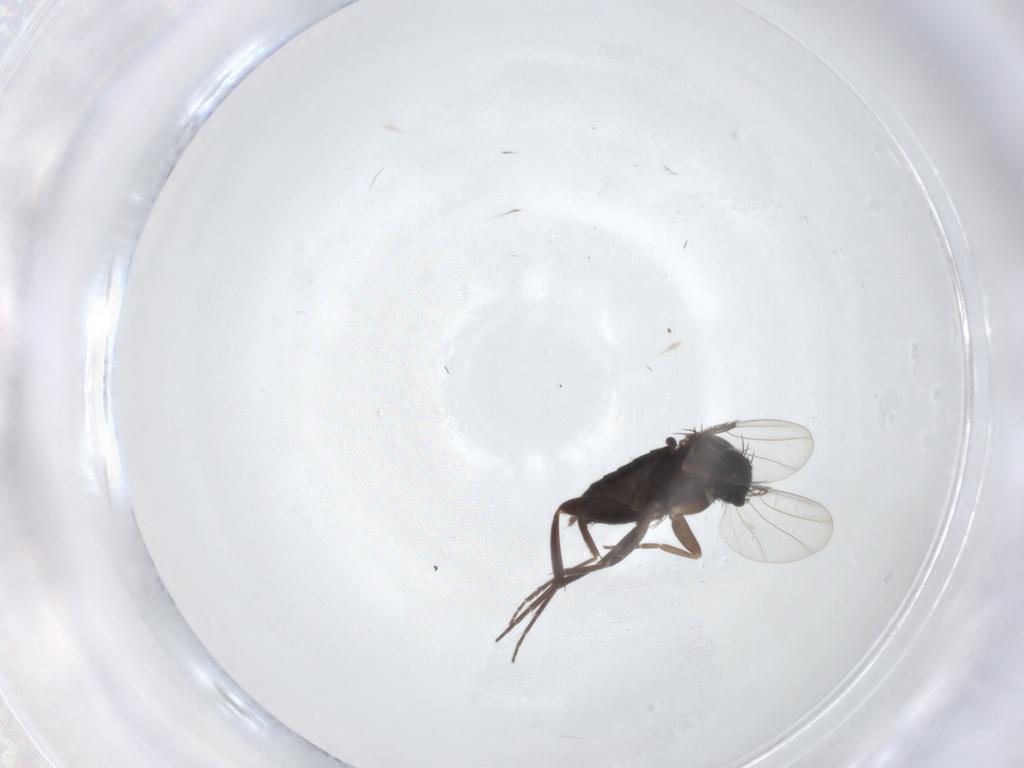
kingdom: Animalia
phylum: Arthropoda
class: Insecta
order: Diptera
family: Phoridae
